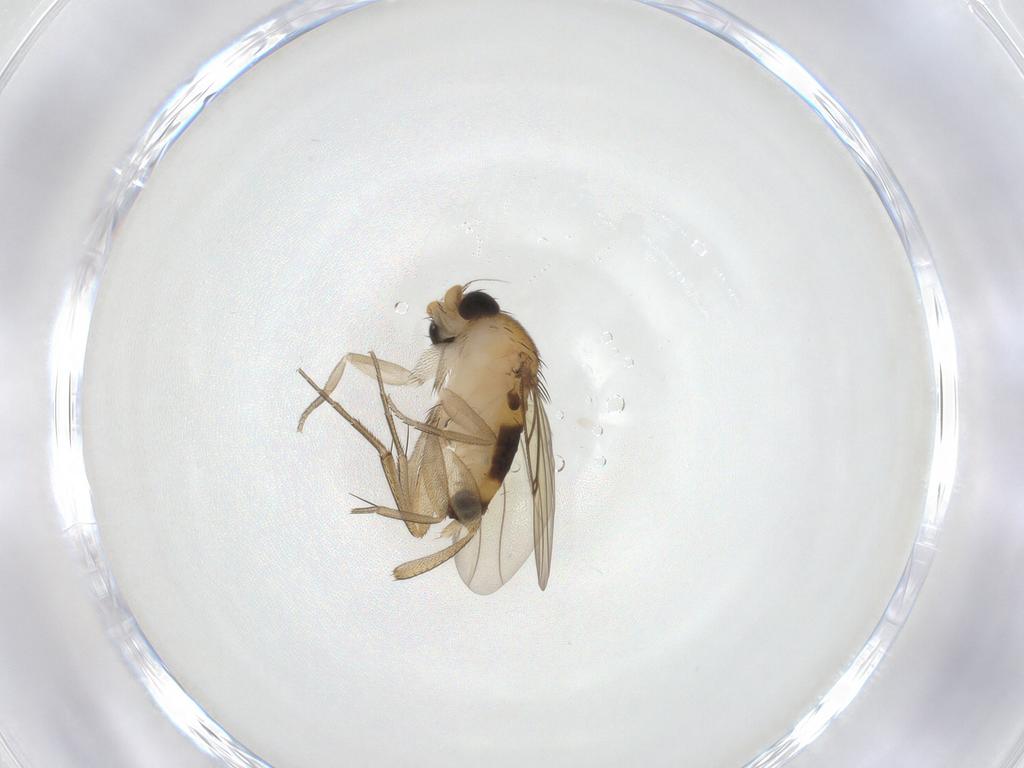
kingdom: Animalia
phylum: Arthropoda
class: Insecta
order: Diptera
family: Phoridae
